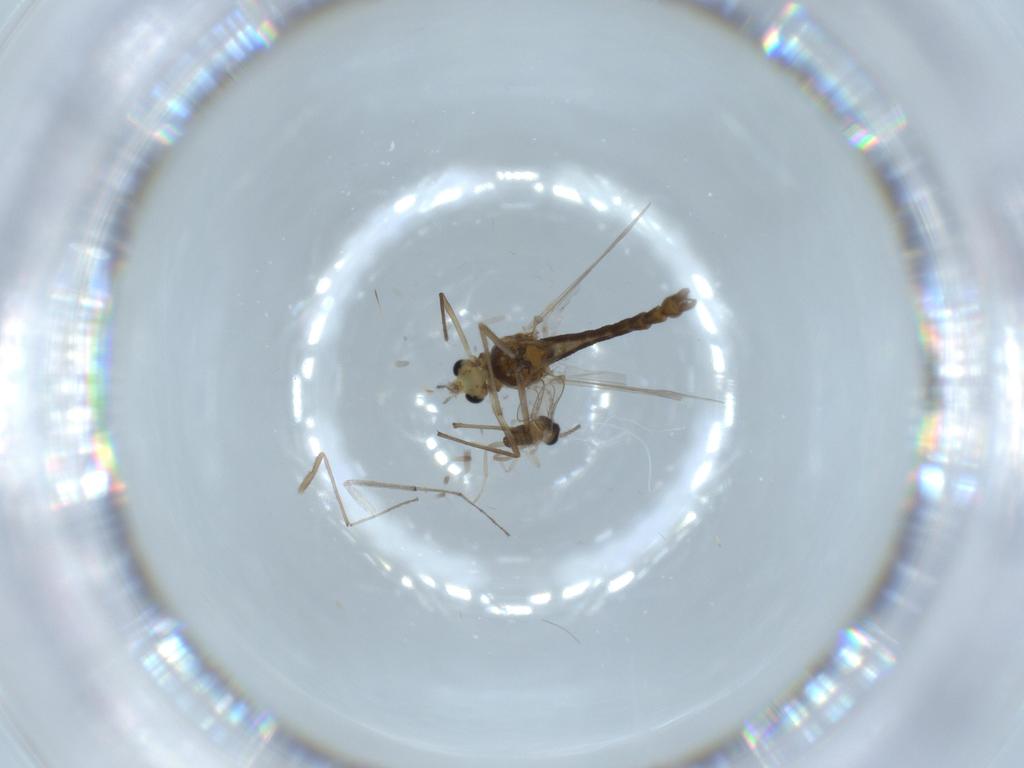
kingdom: Animalia
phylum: Arthropoda
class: Insecta
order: Diptera
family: Chironomidae
